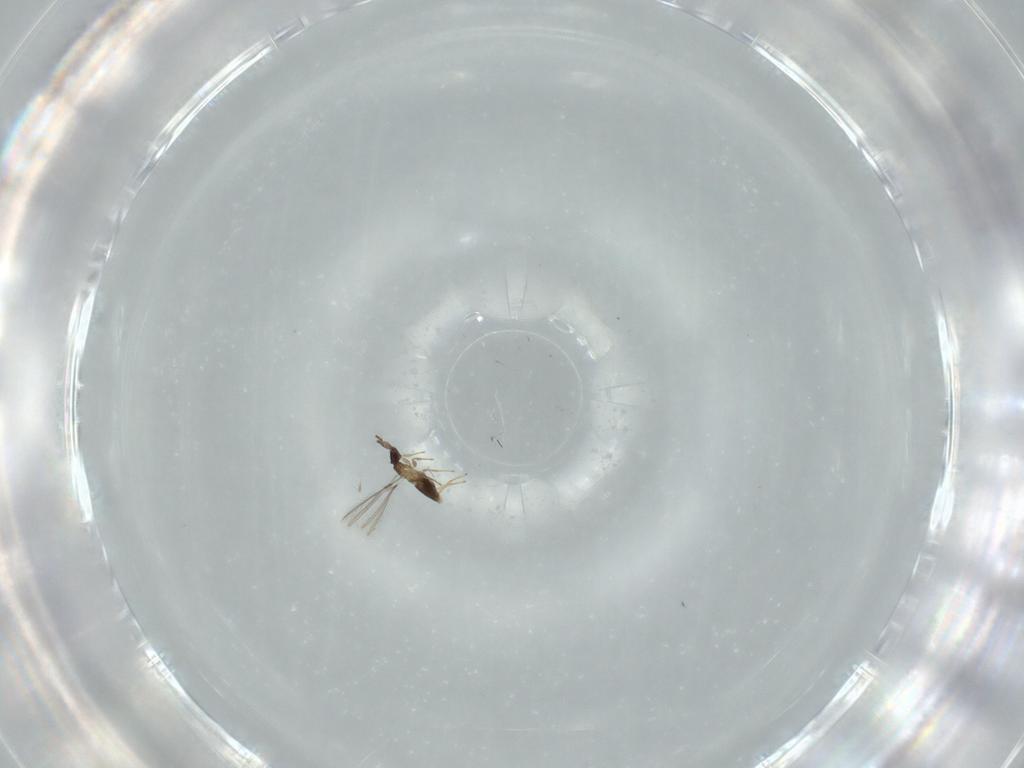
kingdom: Animalia
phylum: Arthropoda
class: Insecta
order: Hymenoptera
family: Mymaridae
